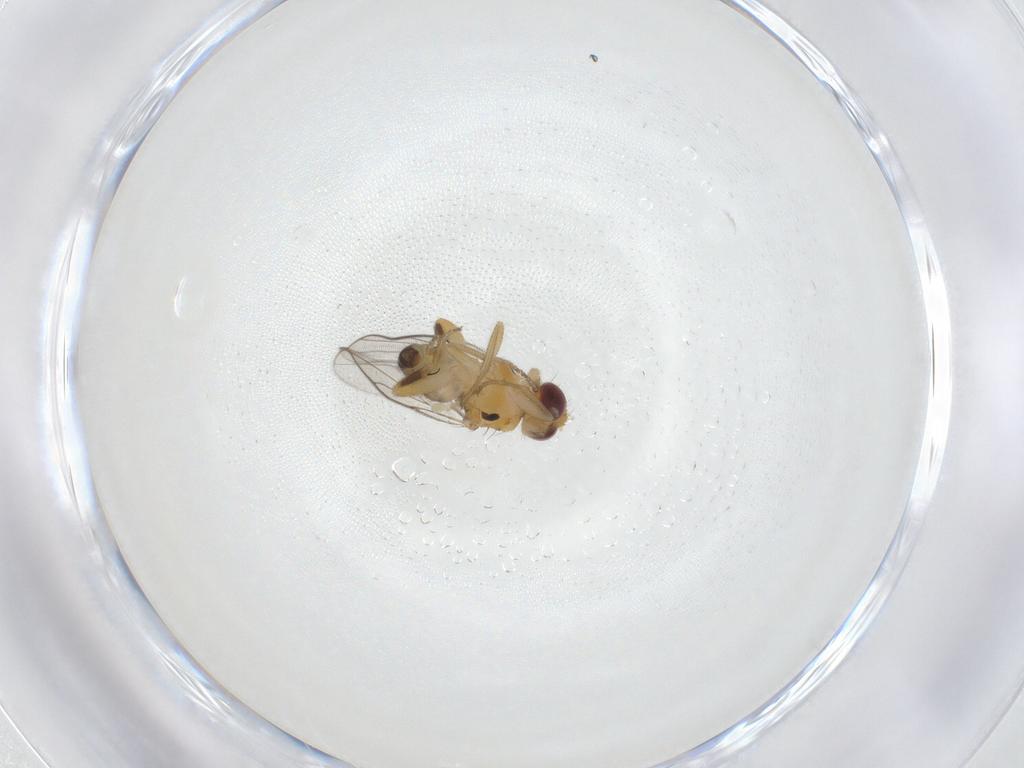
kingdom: Animalia
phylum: Arthropoda
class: Insecta
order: Diptera
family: Chloropidae
